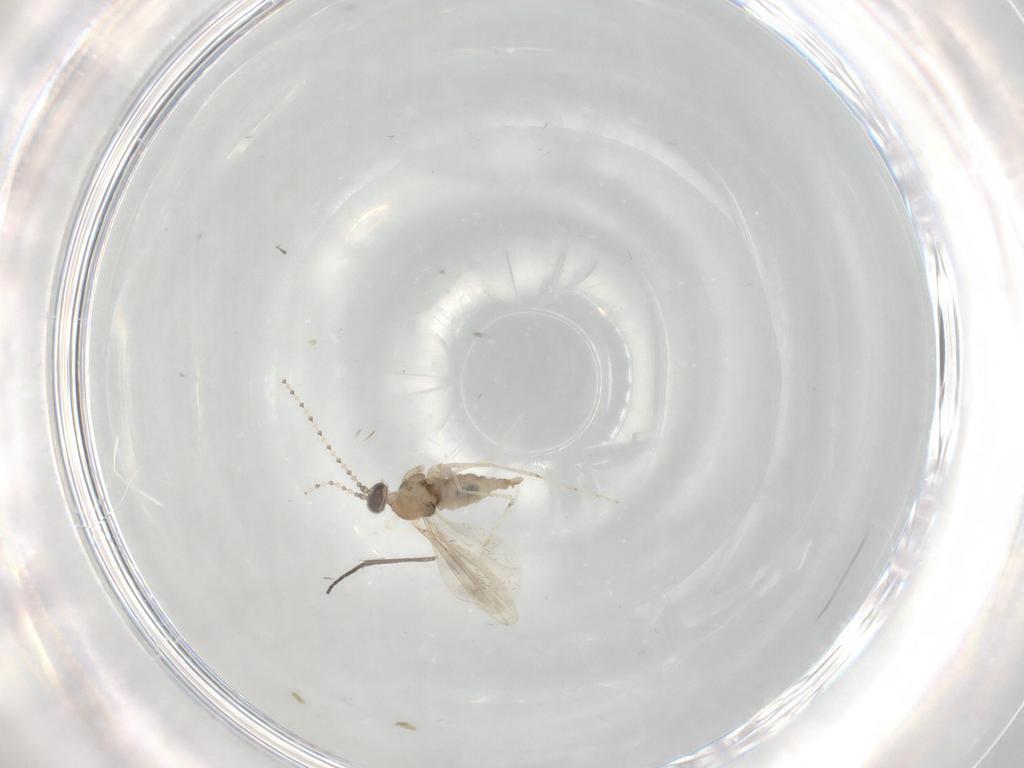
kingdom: Animalia
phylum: Arthropoda
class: Insecta
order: Diptera
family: Cecidomyiidae
